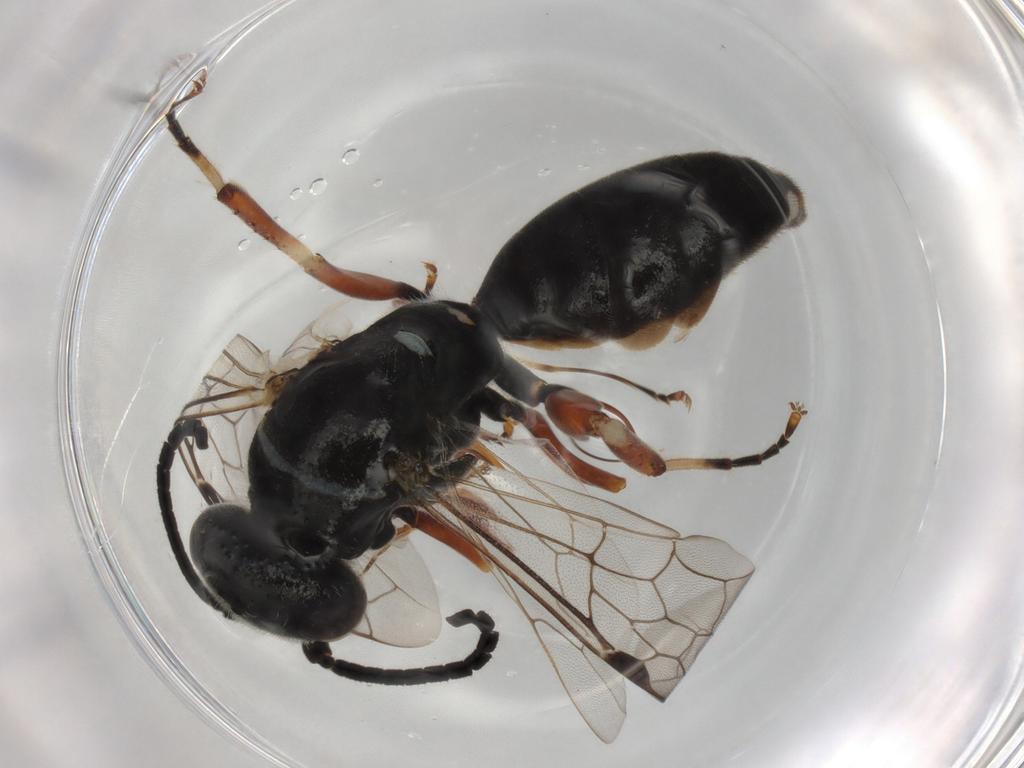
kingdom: Animalia
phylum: Arthropoda
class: Insecta
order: Hymenoptera
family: Thynnidae
